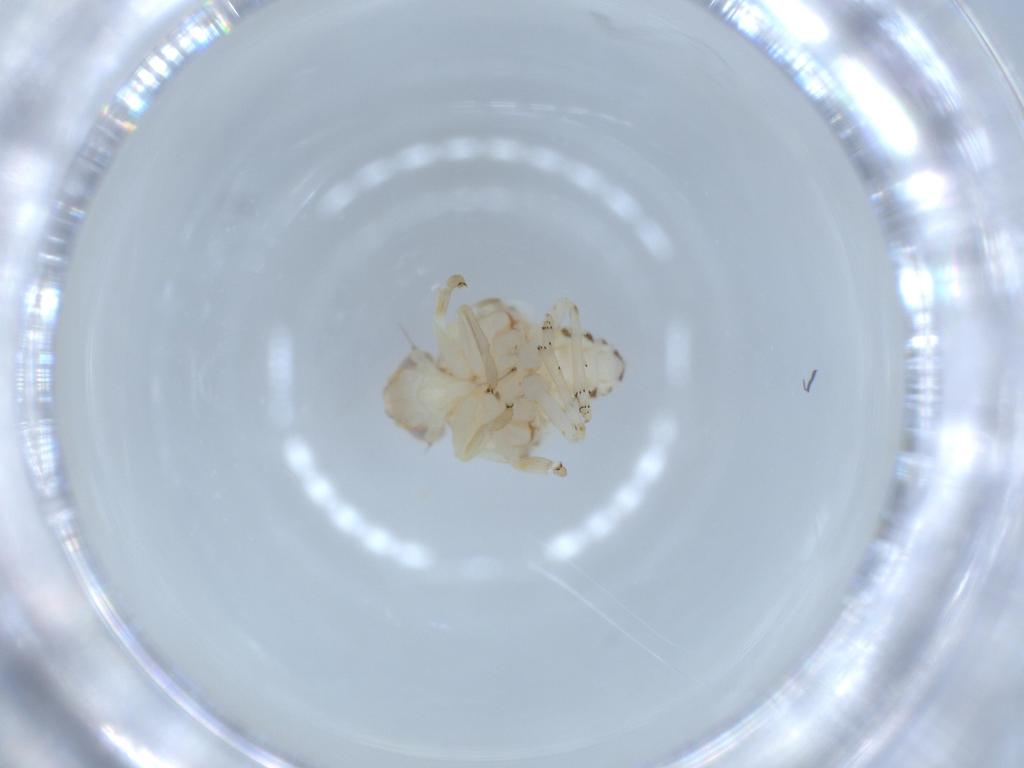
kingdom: Animalia
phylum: Arthropoda
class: Insecta
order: Hemiptera
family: Nogodinidae
